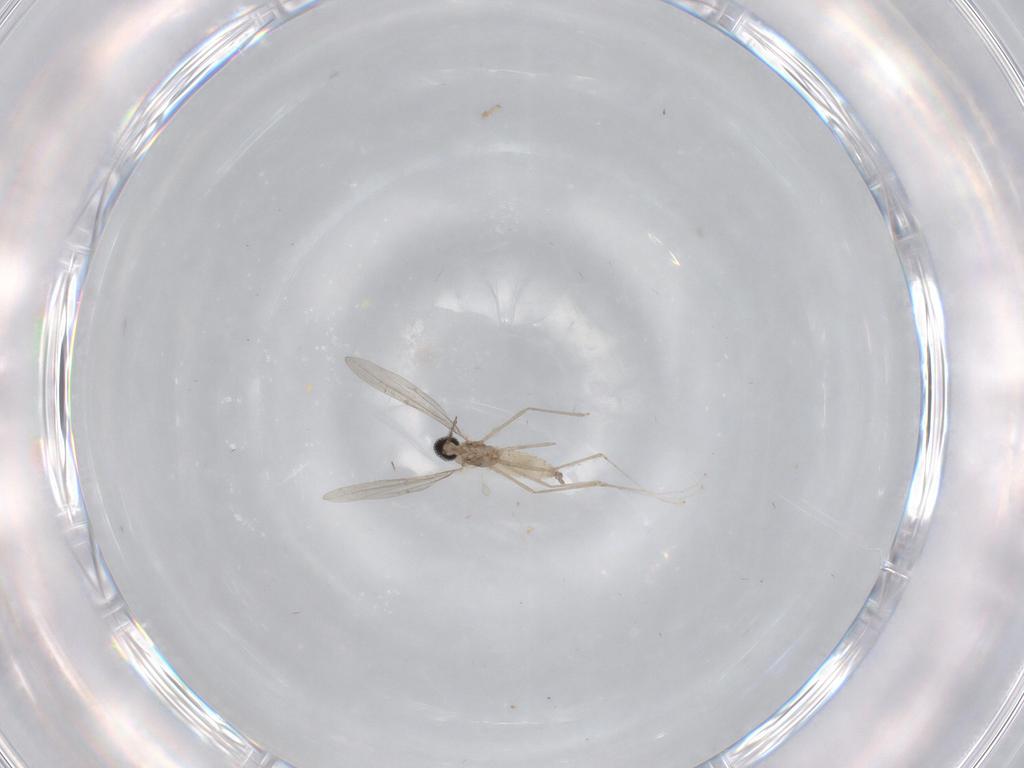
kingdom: Animalia
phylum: Arthropoda
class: Insecta
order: Diptera
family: Cecidomyiidae
